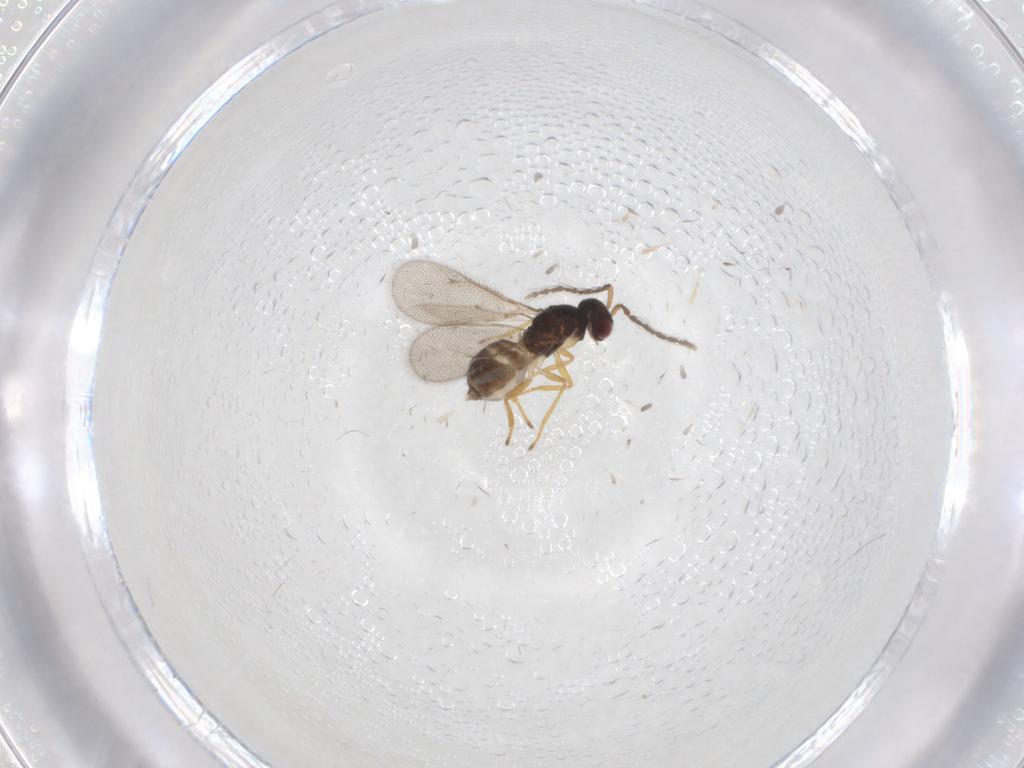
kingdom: Animalia
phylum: Arthropoda
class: Insecta
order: Hymenoptera
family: Eulophidae
